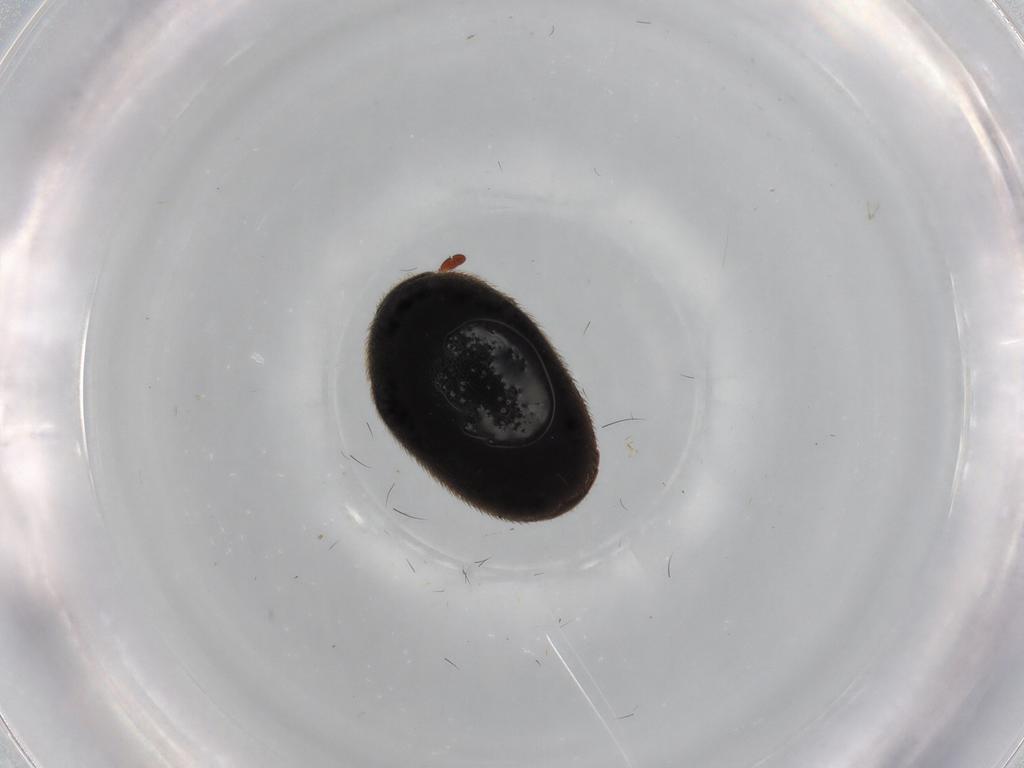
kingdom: Animalia
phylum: Arthropoda
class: Insecta
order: Coleoptera
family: Dermestidae
